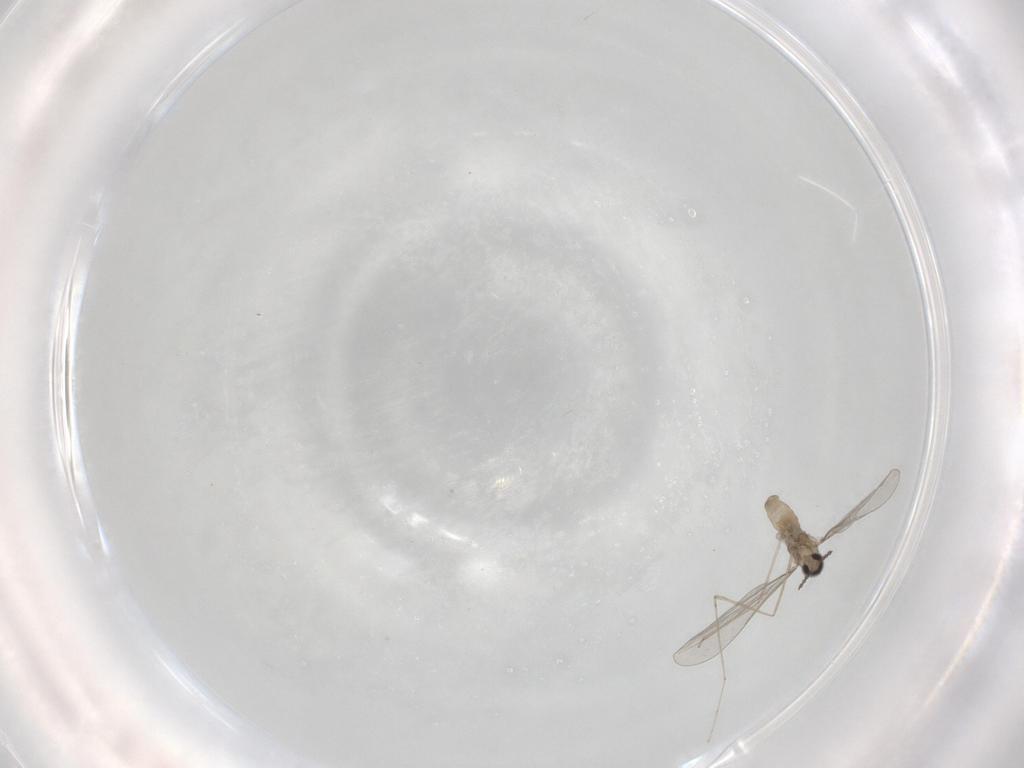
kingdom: Animalia
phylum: Arthropoda
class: Insecta
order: Diptera
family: Cecidomyiidae
